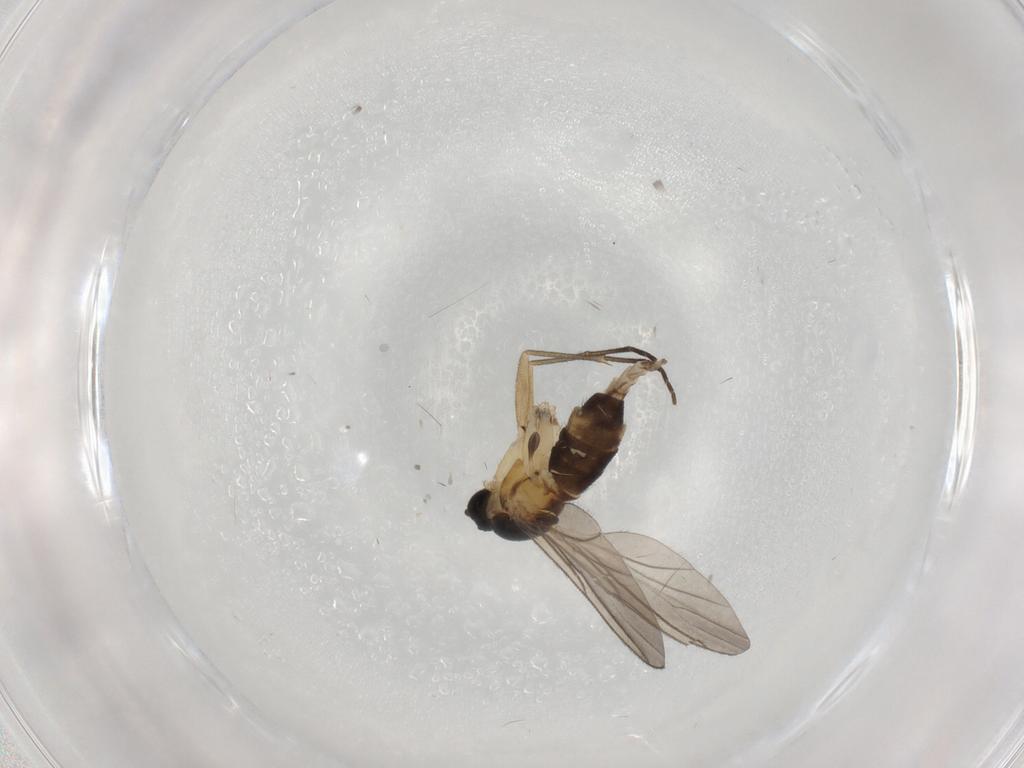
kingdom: Animalia
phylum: Arthropoda
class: Insecta
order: Diptera
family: Sciaridae
